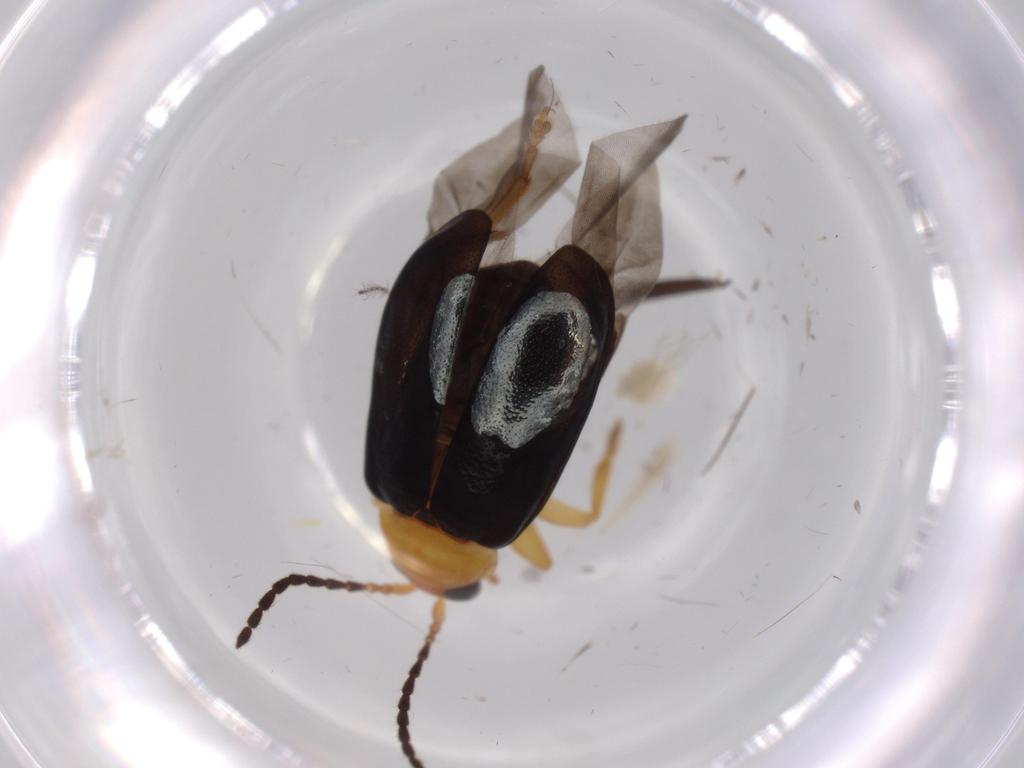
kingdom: Animalia
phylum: Arthropoda
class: Insecta
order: Coleoptera
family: Chrysomelidae
